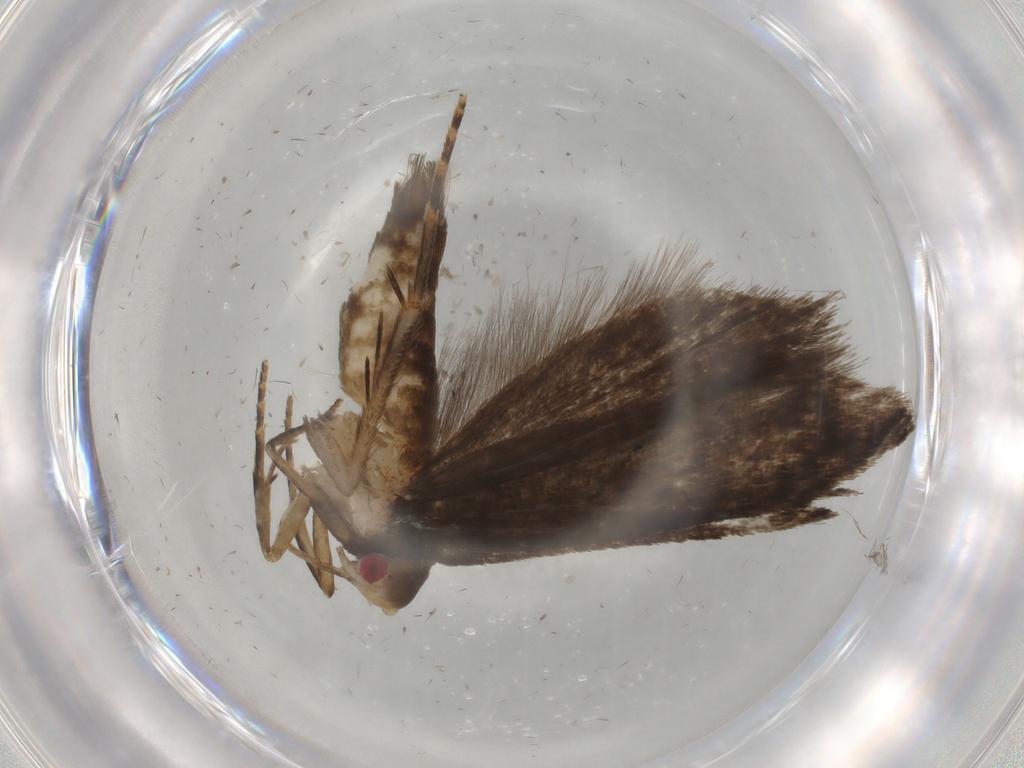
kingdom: Animalia
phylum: Arthropoda
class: Insecta
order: Lepidoptera
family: Gelechiidae
